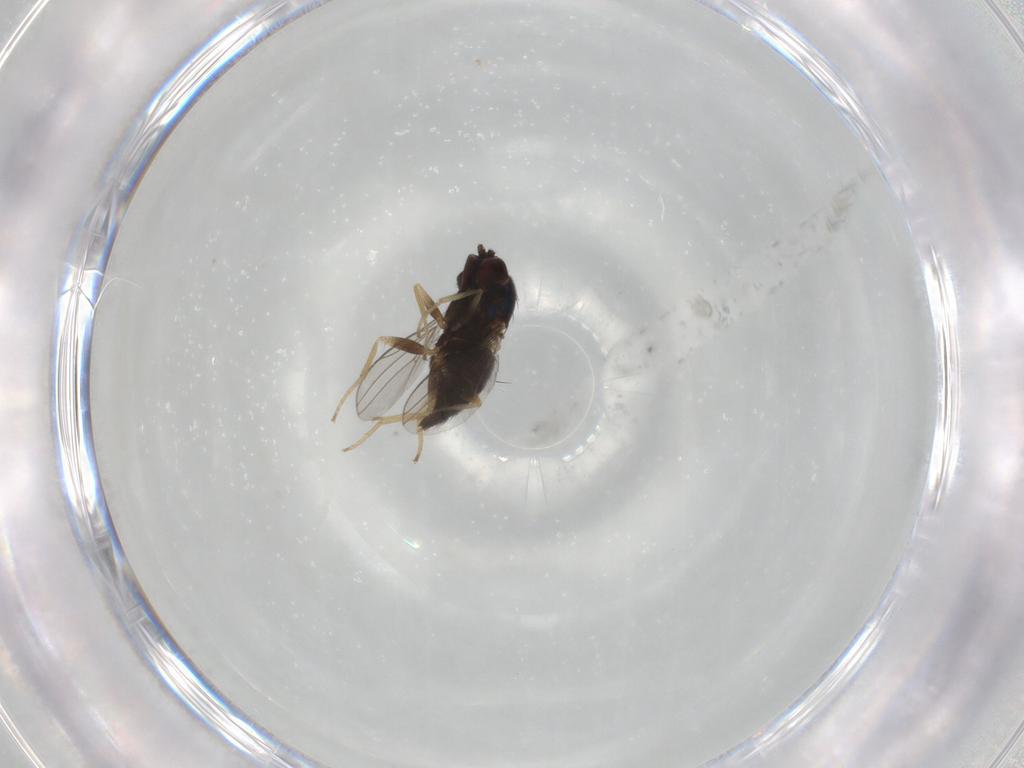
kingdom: Animalia
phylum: Arthropoda
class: Insecta
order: Diptera
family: Dolichopodidae
